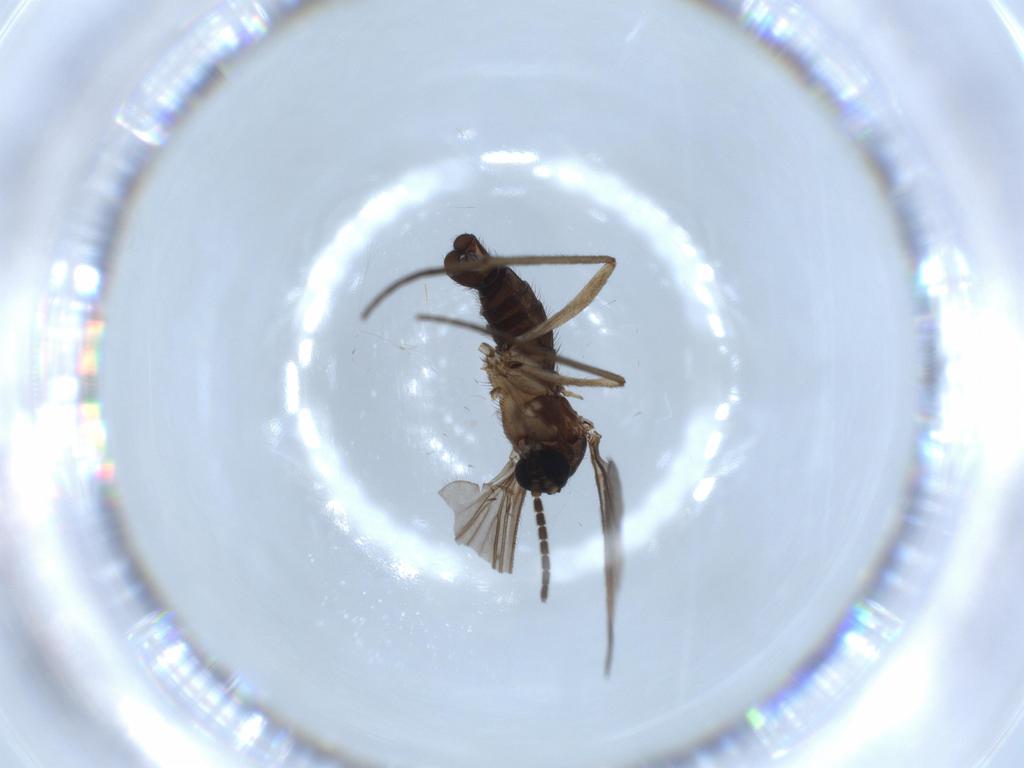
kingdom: Animalia
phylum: Arthropoda
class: Insecta
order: Diptera
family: Sciaridae
